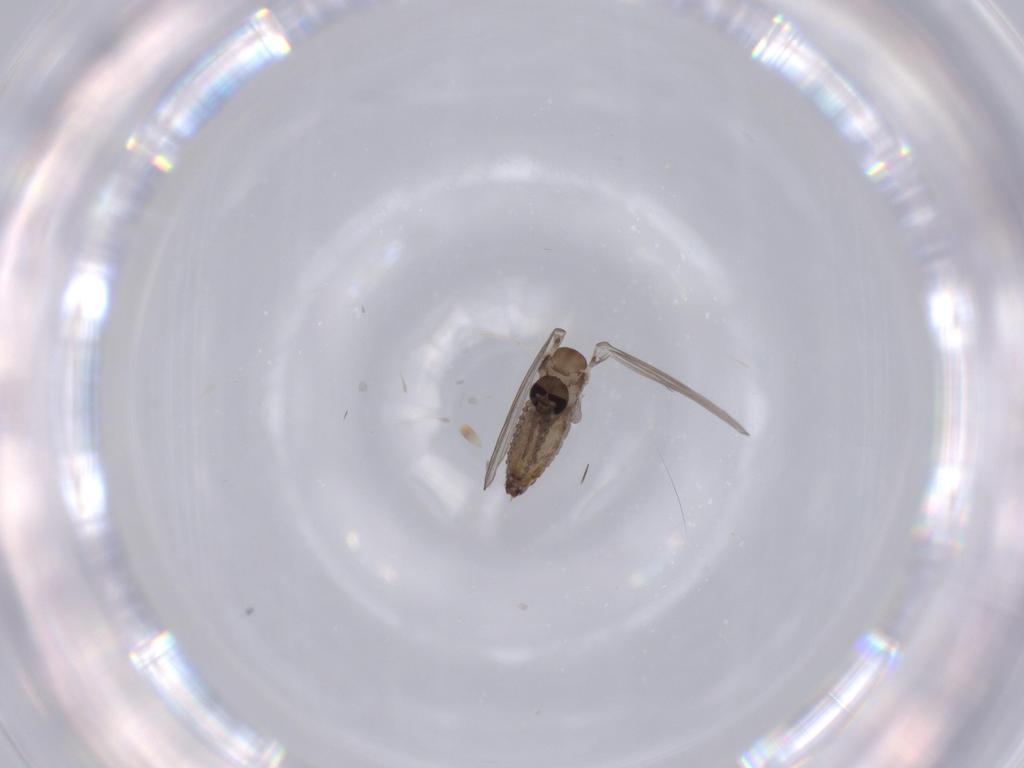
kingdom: Animalia
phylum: Arthropoda
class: Insecta
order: Diptera
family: Psychodidae
